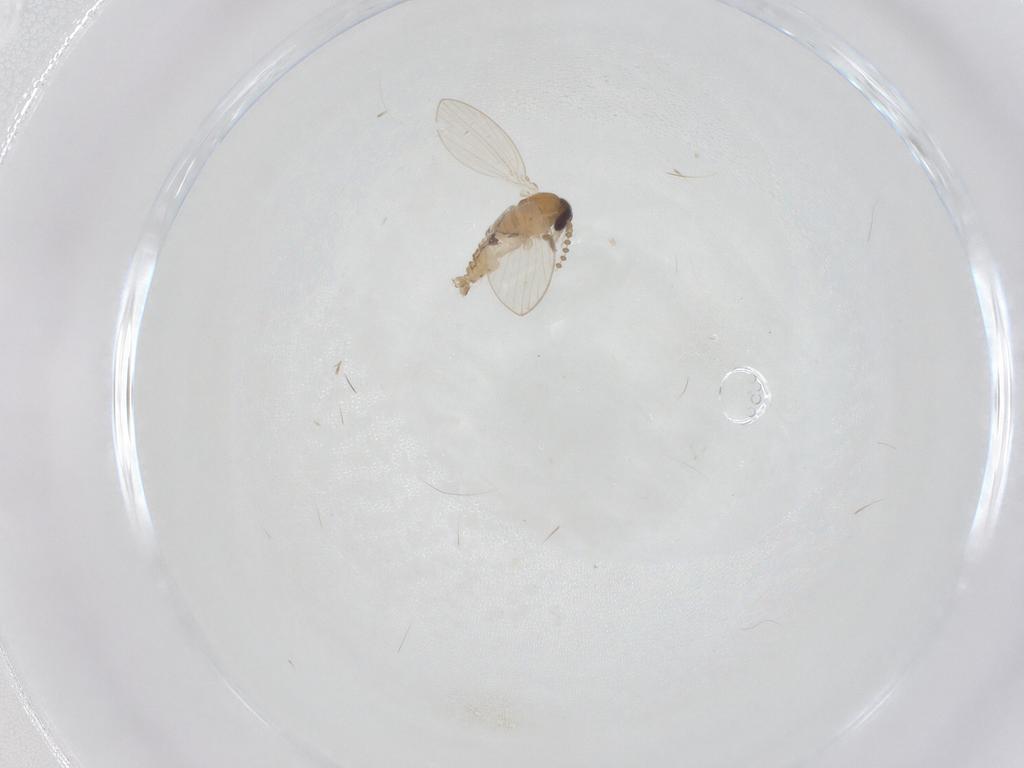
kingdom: Animalia
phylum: Arthropoda
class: Insecta
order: Diptera
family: Psychodidae
